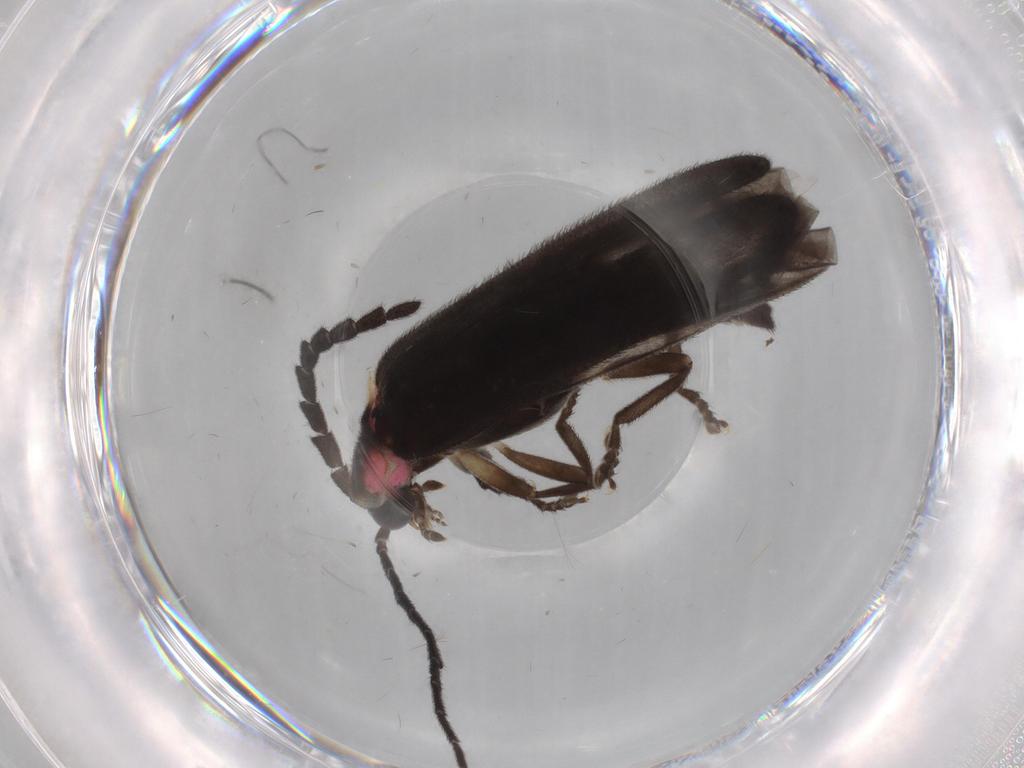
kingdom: Animalia
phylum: Arthropoda
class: Insecta
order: Coleoptera
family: Lampyridae
